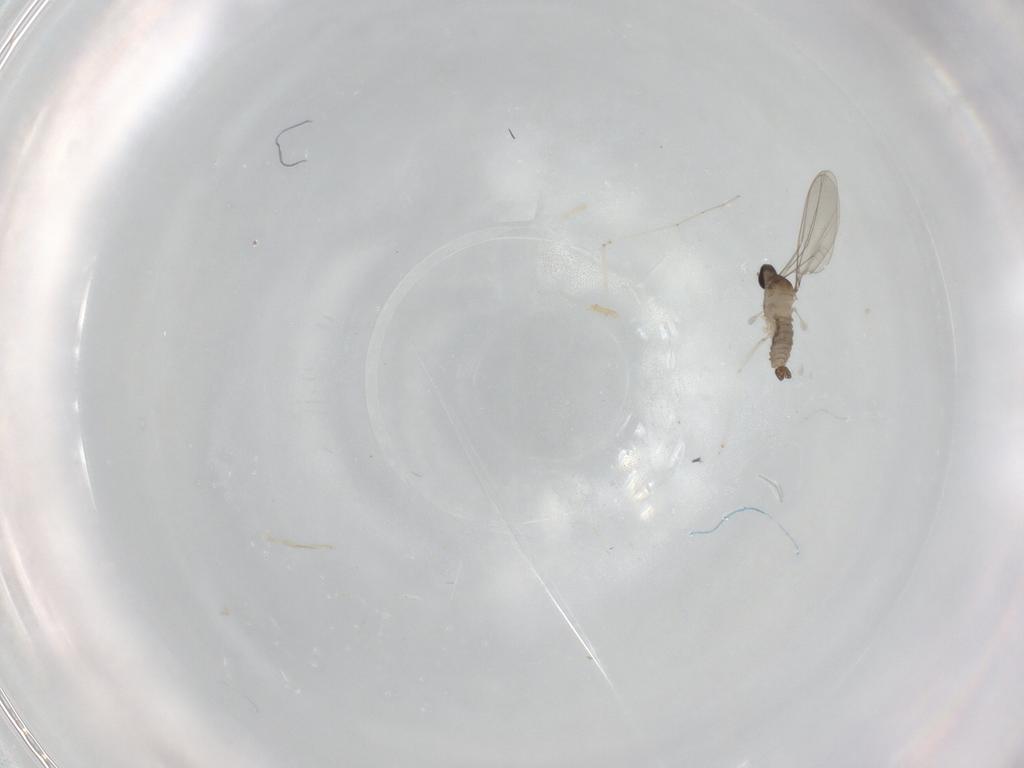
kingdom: Animalia
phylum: Arthropoda
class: Insecta
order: Diptera
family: Cecidomyiidae
